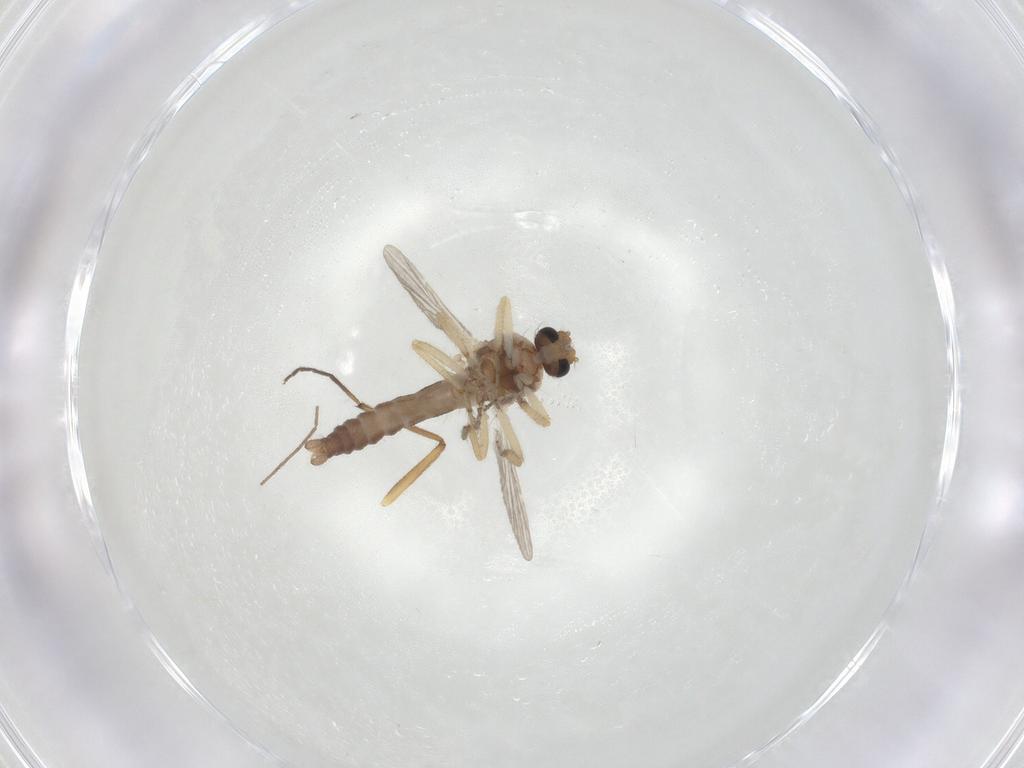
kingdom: Animalia
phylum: Arthropoda
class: Insecta
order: Diptera
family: Ceratopogonidae
